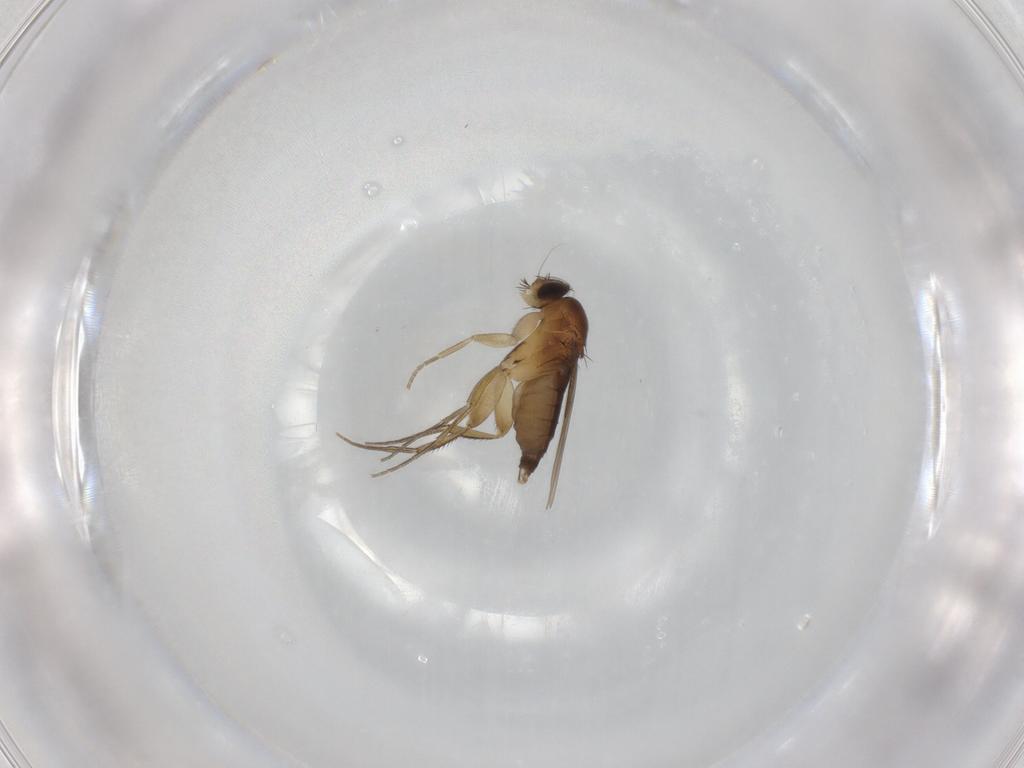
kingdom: Animalia
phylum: Arthropoda
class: Insecta
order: Diptera
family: Phoridae
